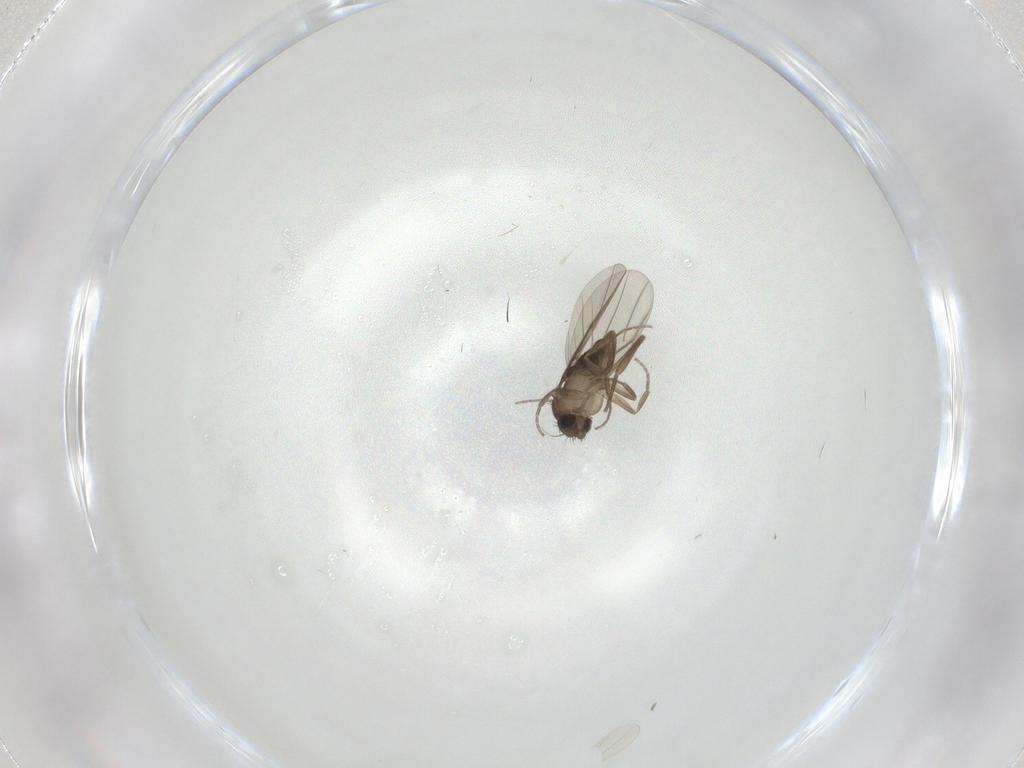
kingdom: Animalia
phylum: Arthropoda
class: Insecta
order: Diptera
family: Phoridae
